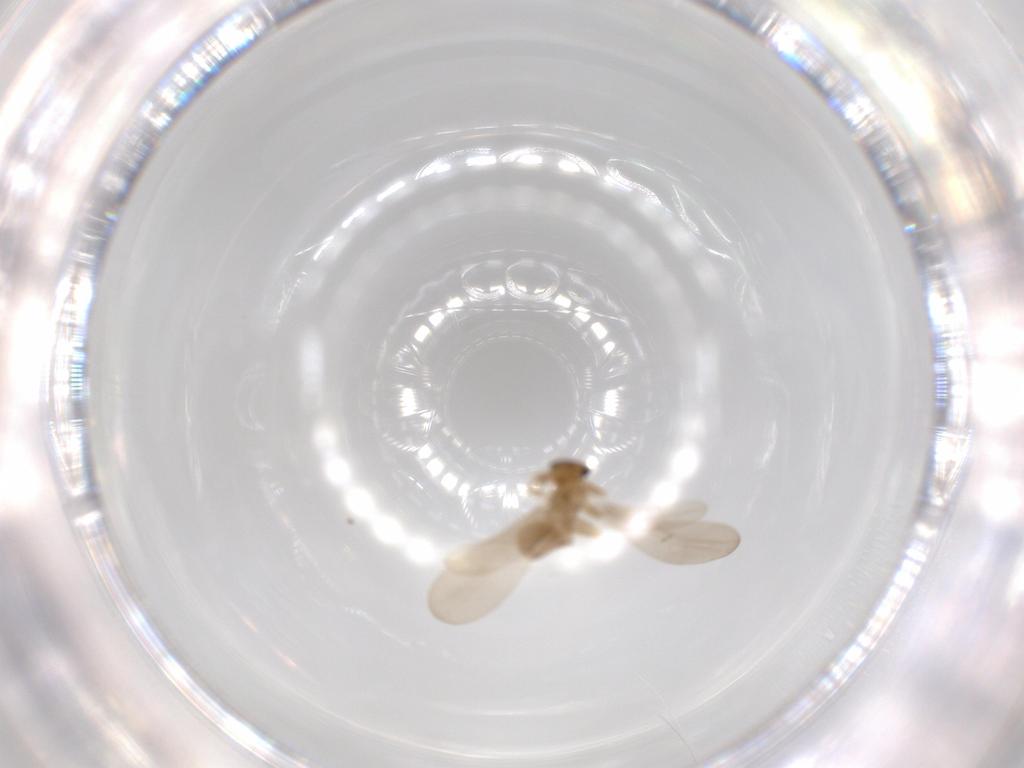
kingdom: Animalia
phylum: Arthropoda
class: Insecta
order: Psocodea
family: Liposcelididae
